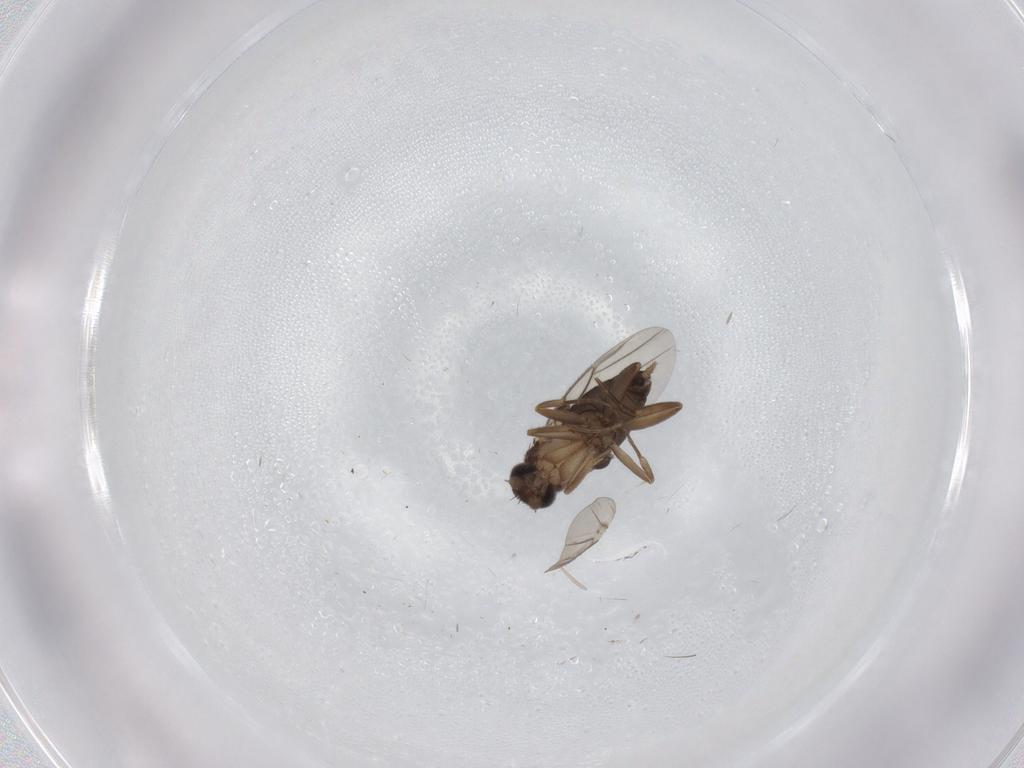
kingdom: Animalia
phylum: Arthropoda
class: Insecta
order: Diptera
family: Phoridae
